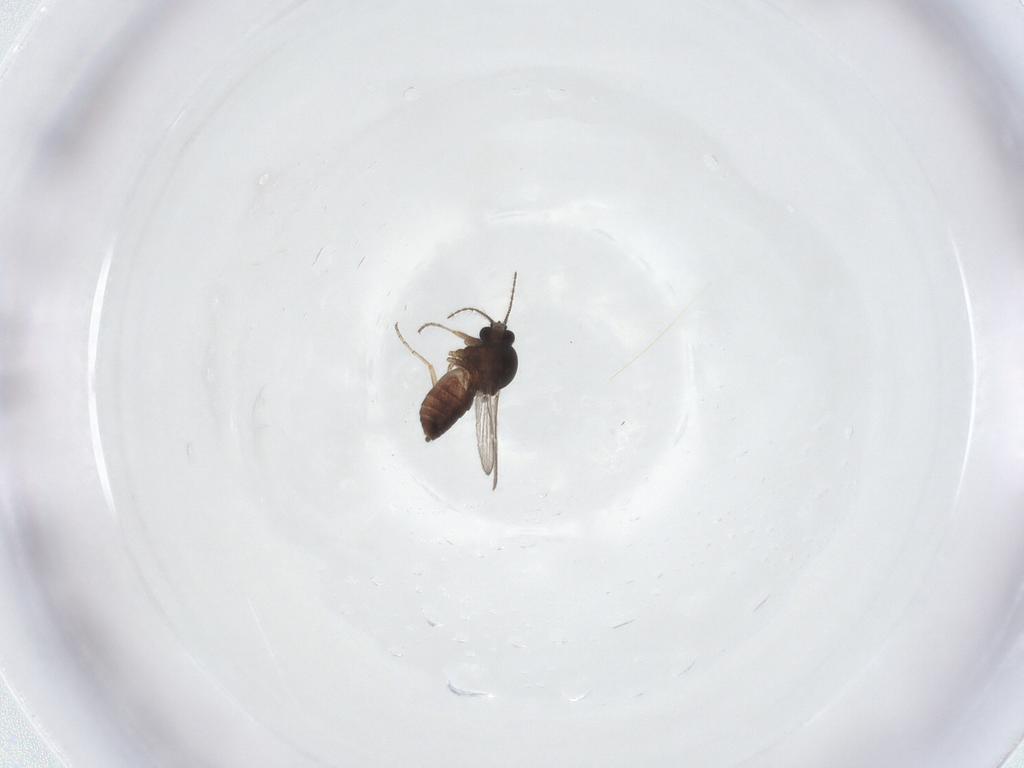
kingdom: Animalia
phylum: Arthropoda
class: Insecta
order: Diptera
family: Ceratopogonidae
